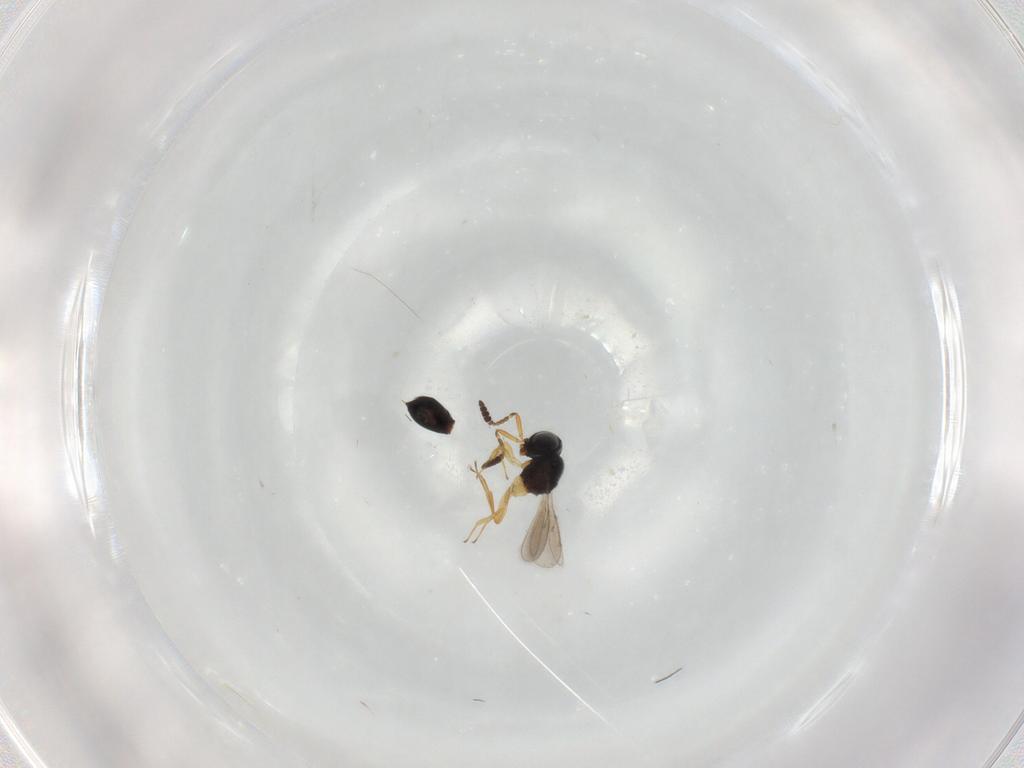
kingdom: Animalia
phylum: Arthropoda
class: Insecta
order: Hymenoptera
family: Scelionidae
